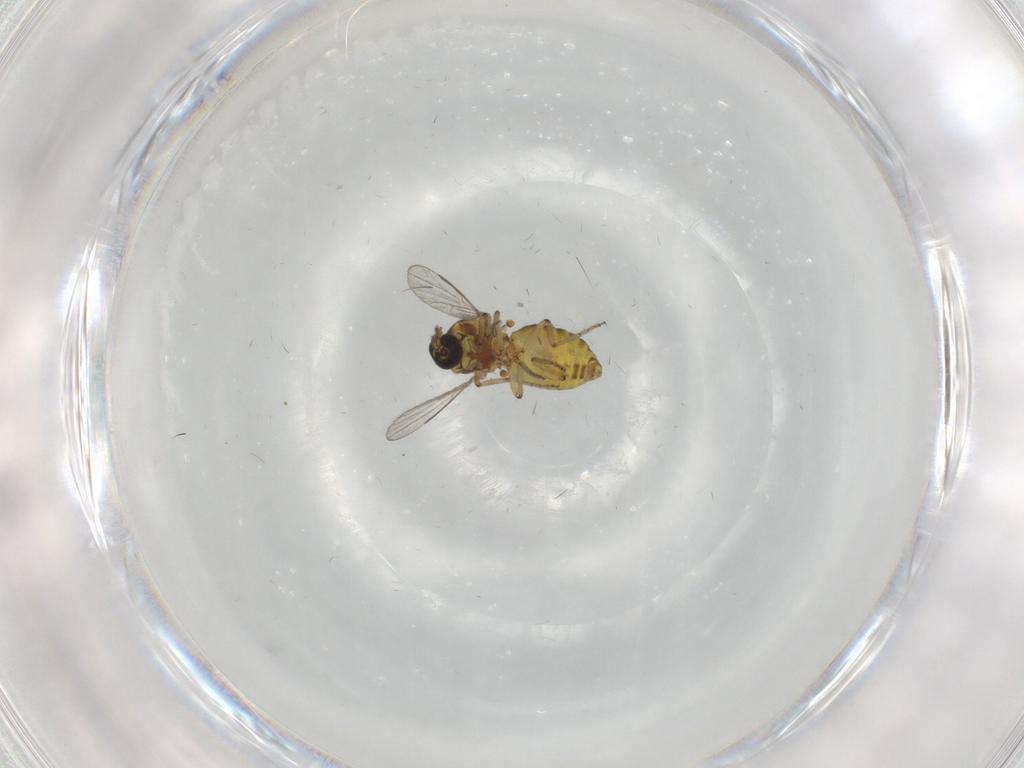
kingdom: Animalia
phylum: Arthropoda
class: Insecta
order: Diptera
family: Ceratopogonidae
